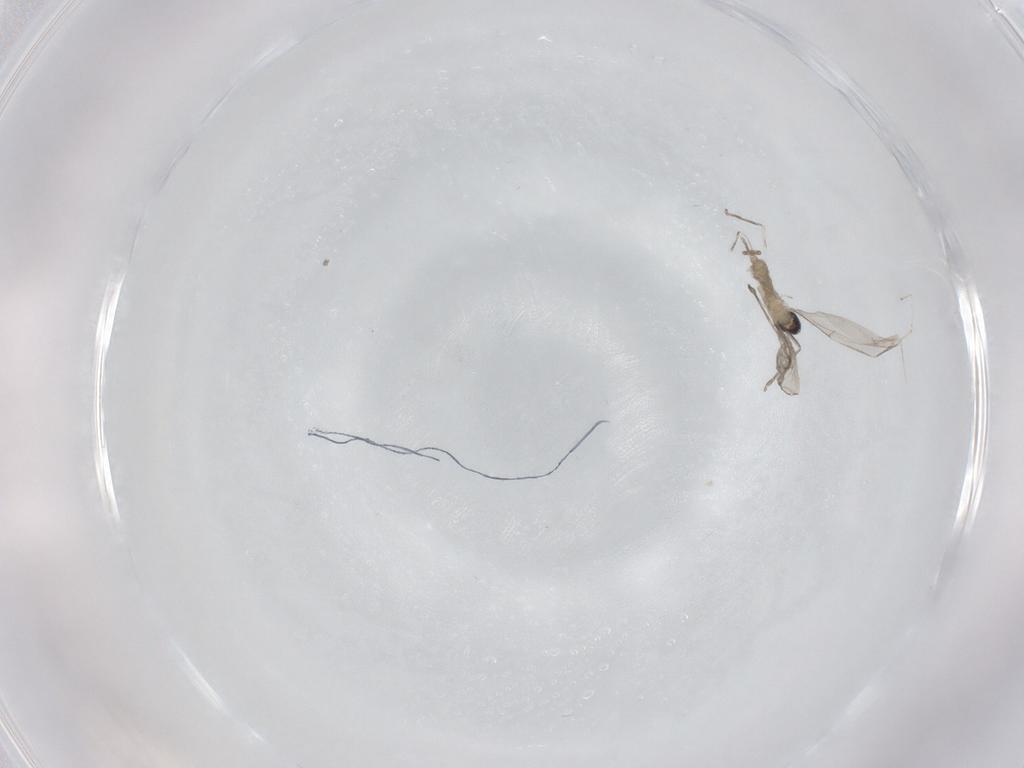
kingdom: Animalia
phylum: Arthropoda
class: Insecta
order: Diptera
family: Cecidomyiidae
